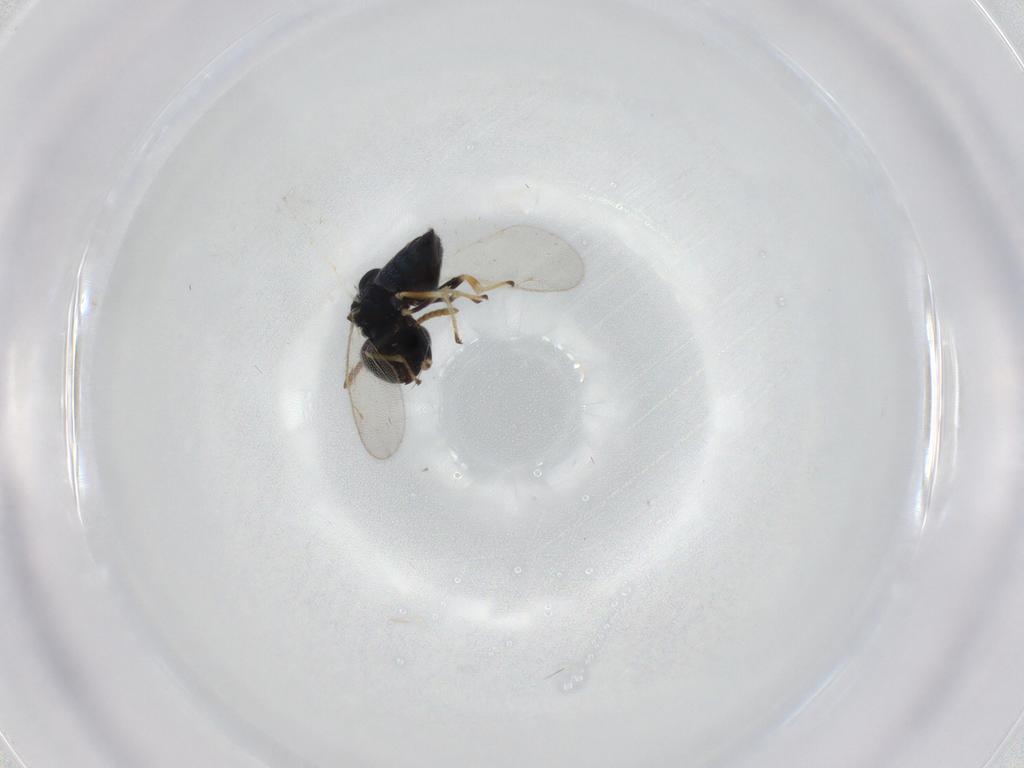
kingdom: Animalia
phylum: Arthropoda
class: Insecta
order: Hymenoptera
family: Pteromalidae
